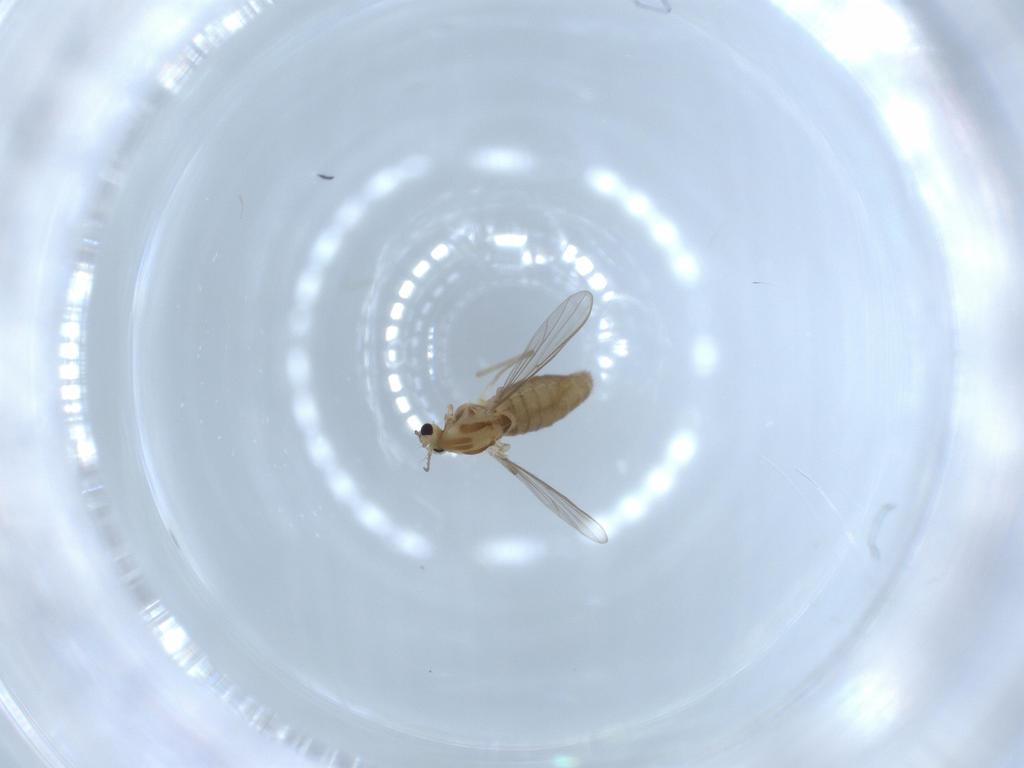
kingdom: Animalia
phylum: Arthropoda
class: Insecta
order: Diptera
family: Chironomidae
